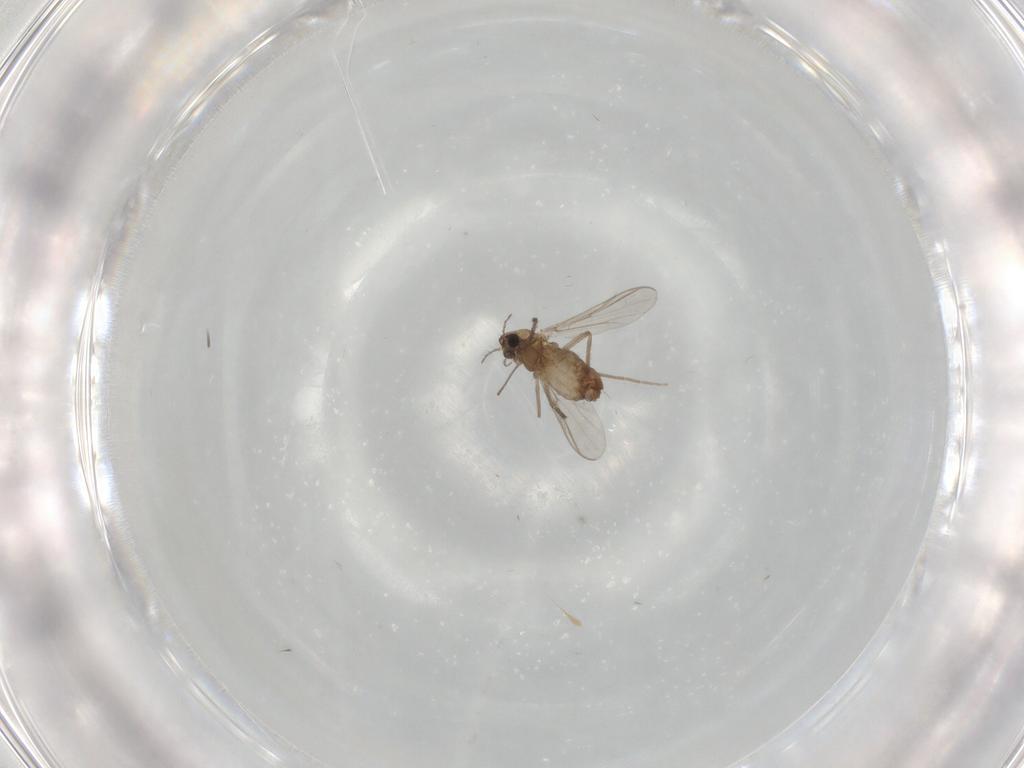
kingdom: Animalia
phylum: Arthropoda
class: Insecta
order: Diptera
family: Chironomidae
